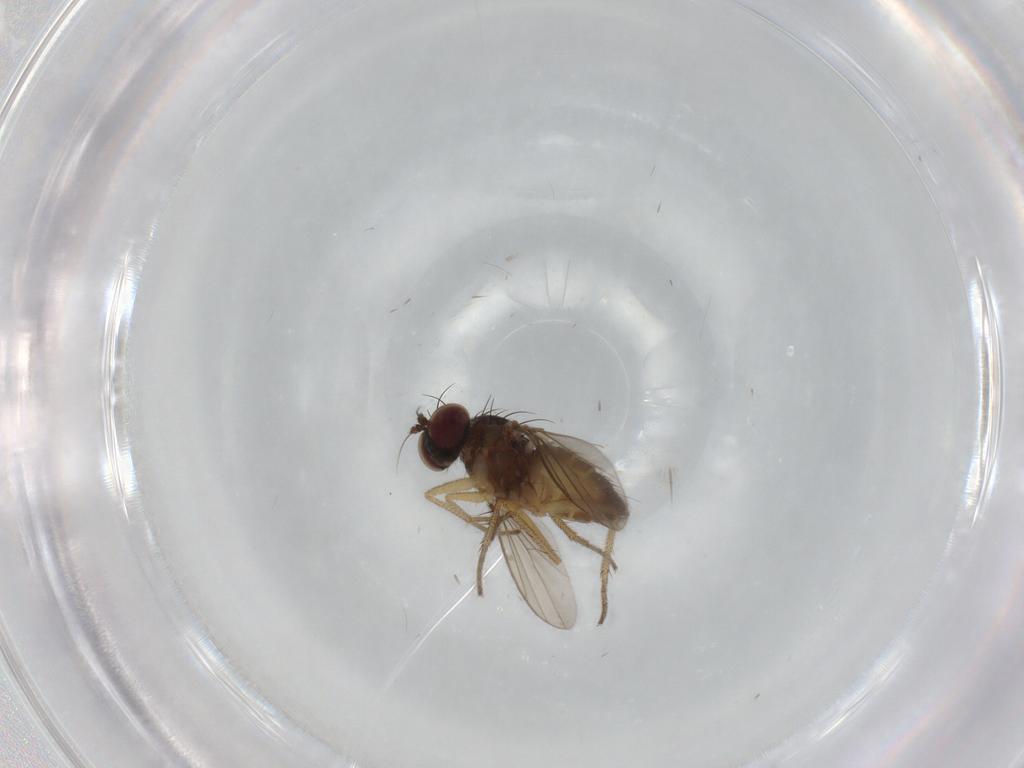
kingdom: Animalia
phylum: Arthropoda
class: Insecta
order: Diptera
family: Dolichopodidae
